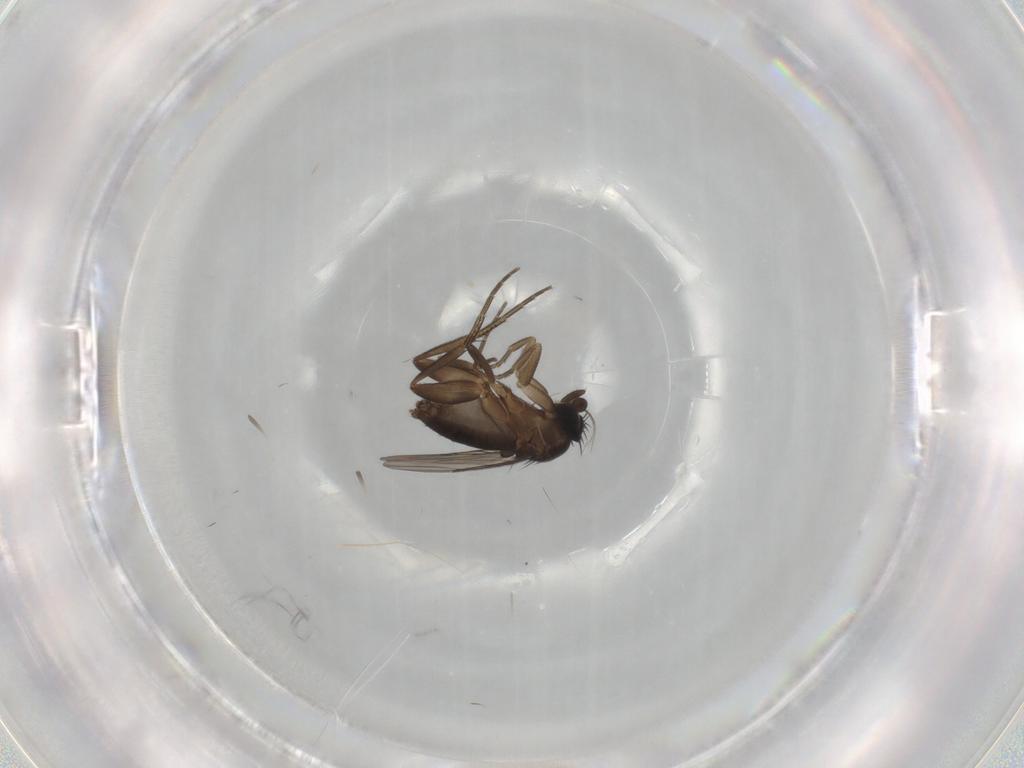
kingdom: Animalia
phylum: Arthropoda
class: Insecta
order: Diptera
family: Phoridae
